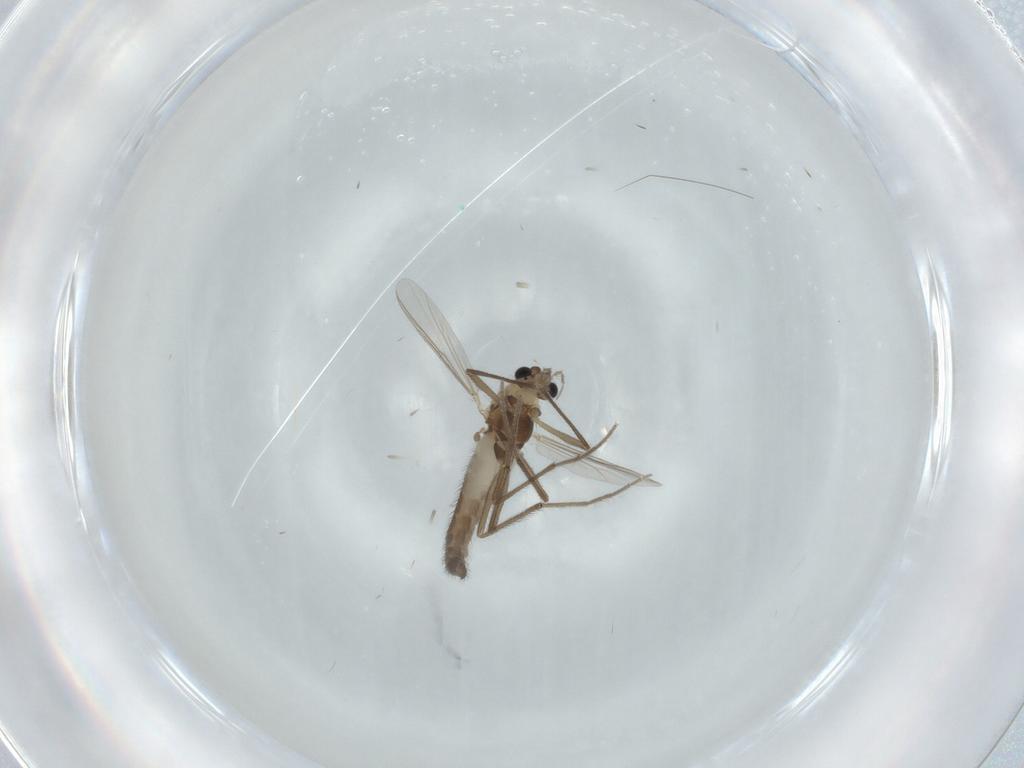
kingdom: Animalia
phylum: Arthropoda
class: Insecta
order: Diptera
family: Chironomidae
